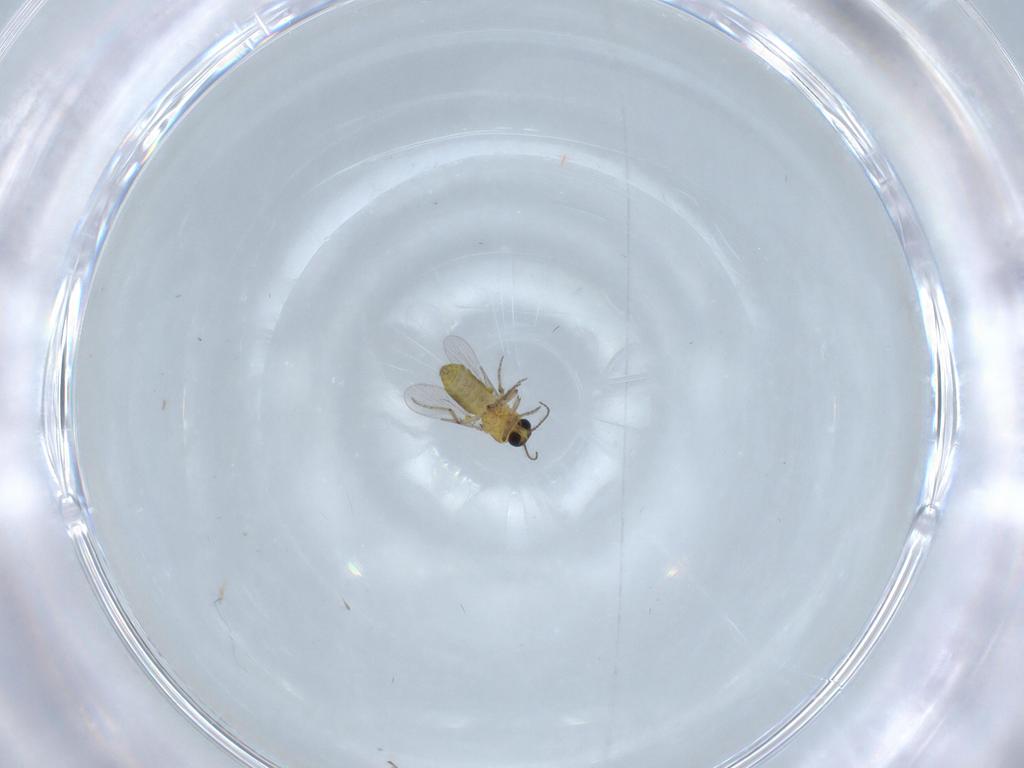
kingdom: Animalia
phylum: Arthropoda
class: Insecta
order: Diptera
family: Ceratopogonidae
